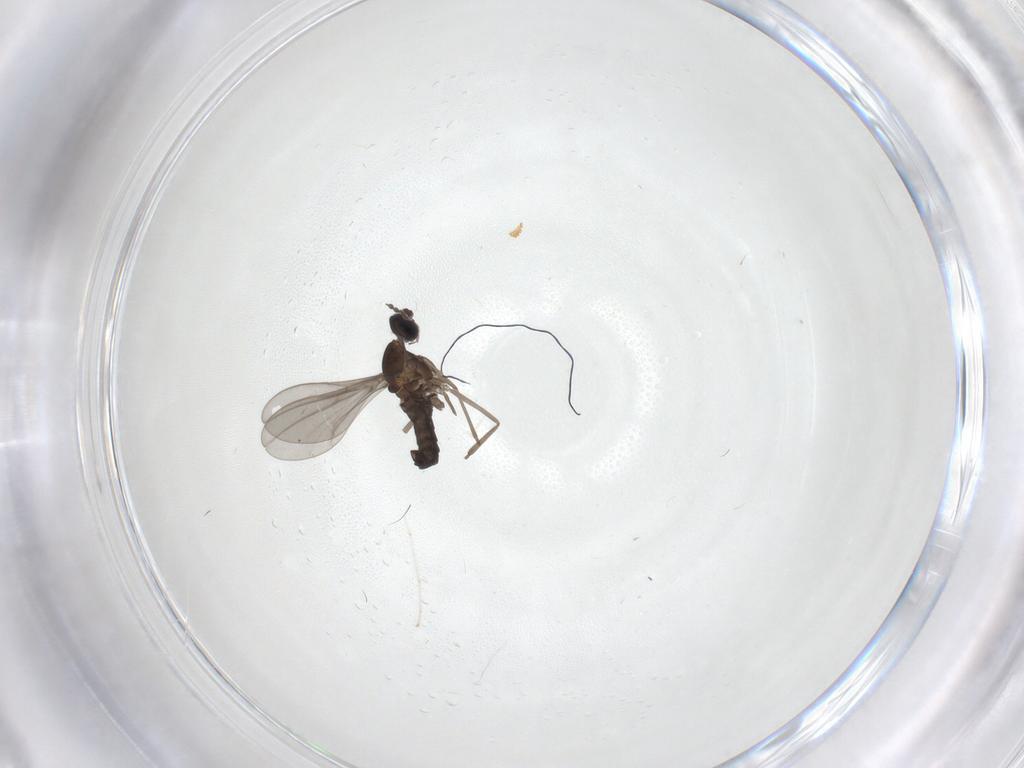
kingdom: Animalia
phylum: Arthropoda
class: Insecta
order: Diptera
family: Chironomidae
